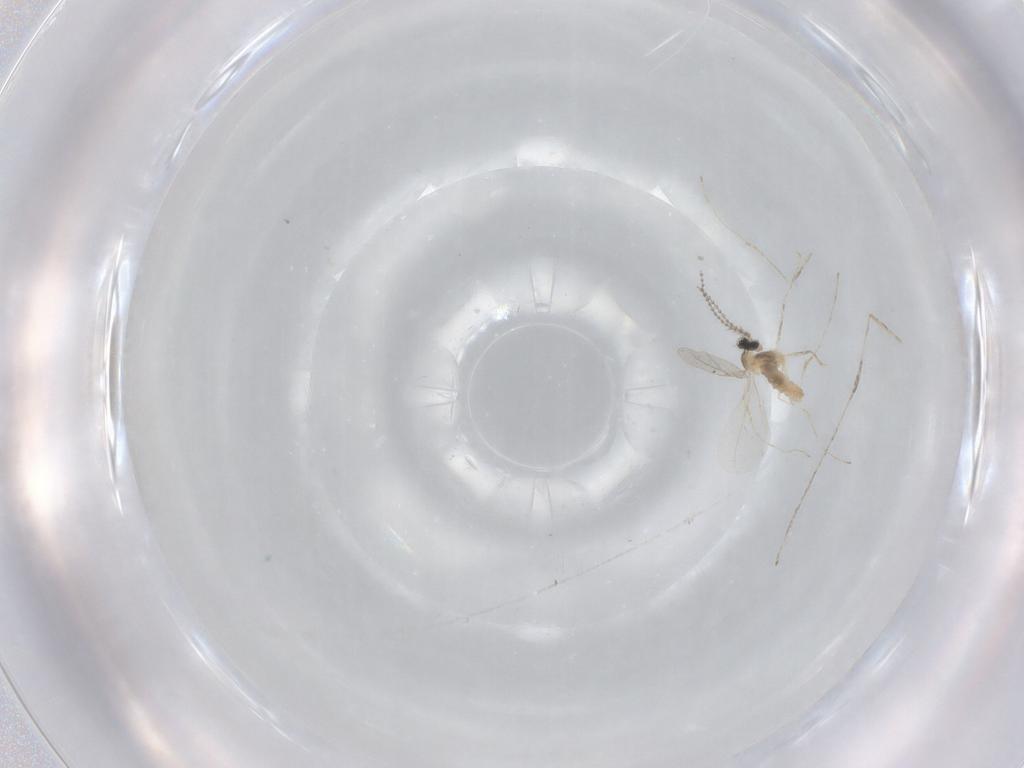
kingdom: Animalia
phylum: Arthropoda
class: Insecta
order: Diptera
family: Cecidomyiidae
